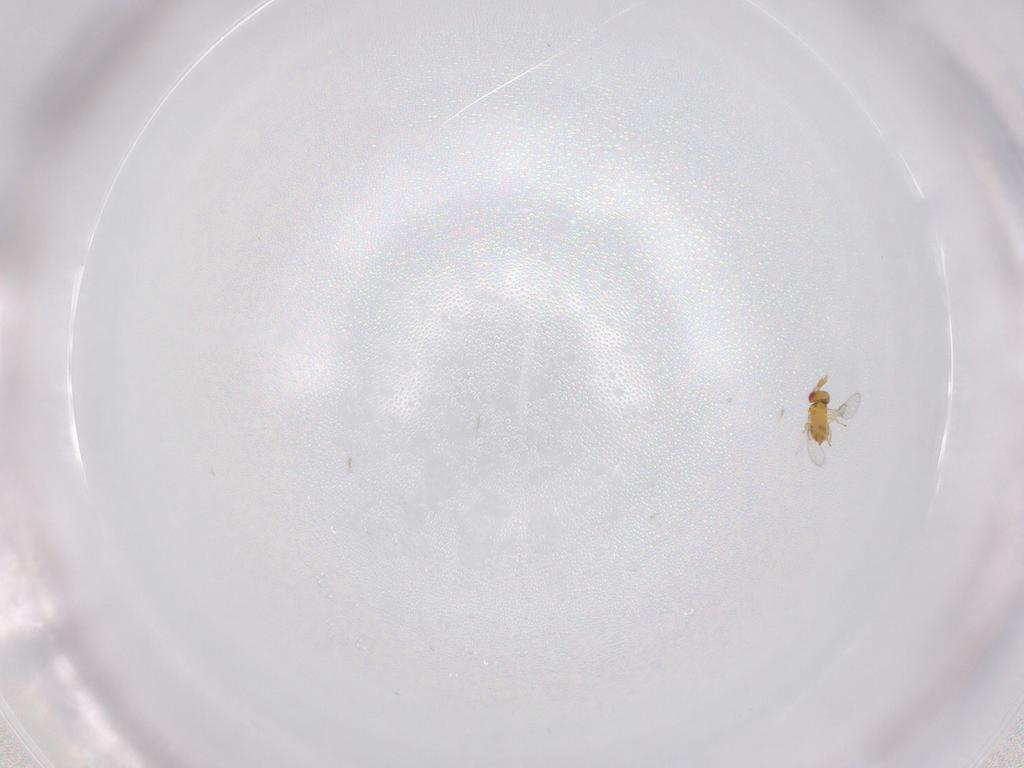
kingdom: Animalia
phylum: Arthropoda
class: Insecta
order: Hymenoptera
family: Trichogrammatidae
